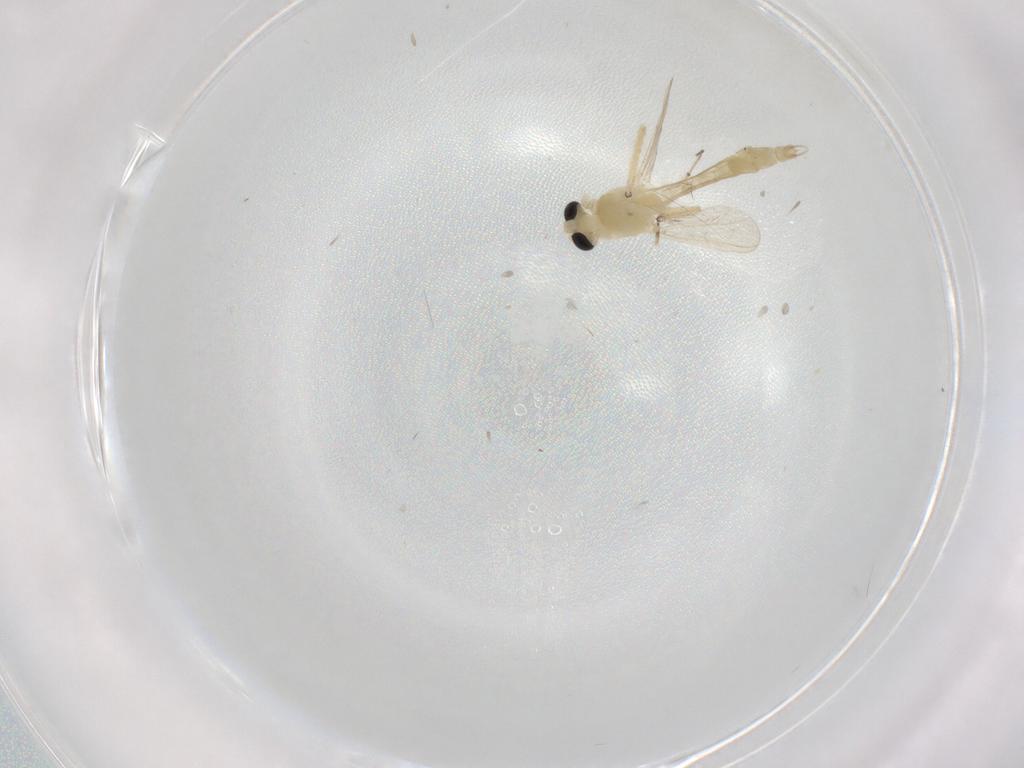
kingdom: Animalia
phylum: Arthropoda
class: Insecta
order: Diptera
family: Chironomidae
